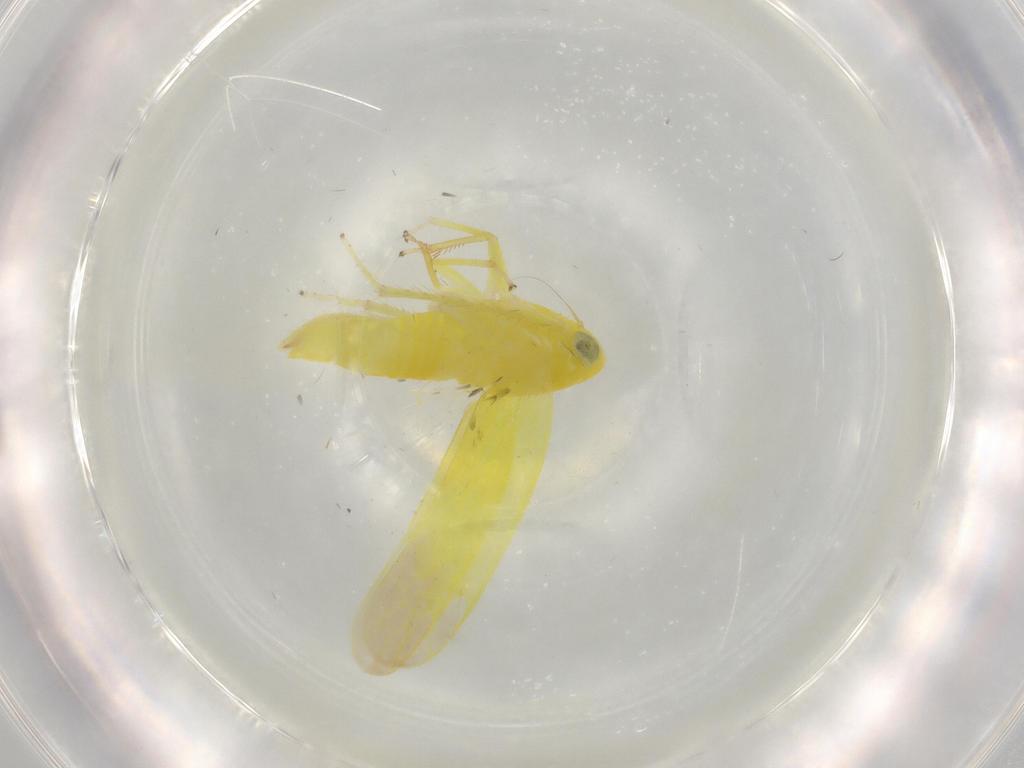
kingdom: Animalia
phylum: Arthropoda
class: Insecta
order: Hemiptera
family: Cicadellidae
